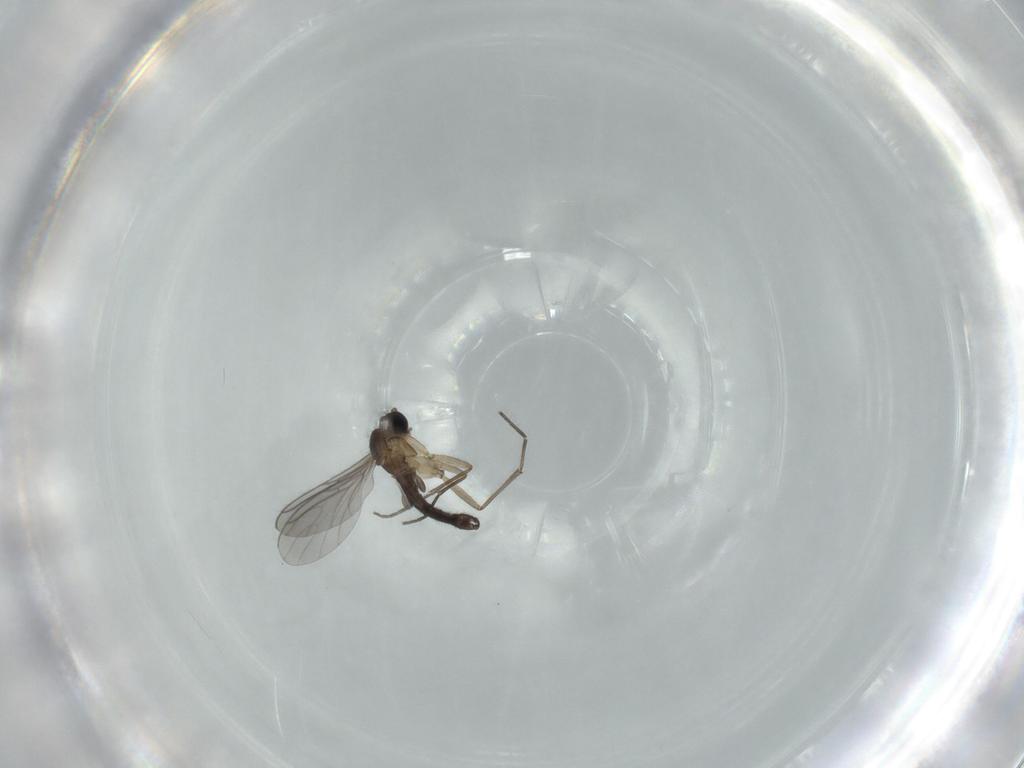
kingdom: Animalia
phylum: Arthropoda
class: Insecta
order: Diptera
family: Sciaridae
